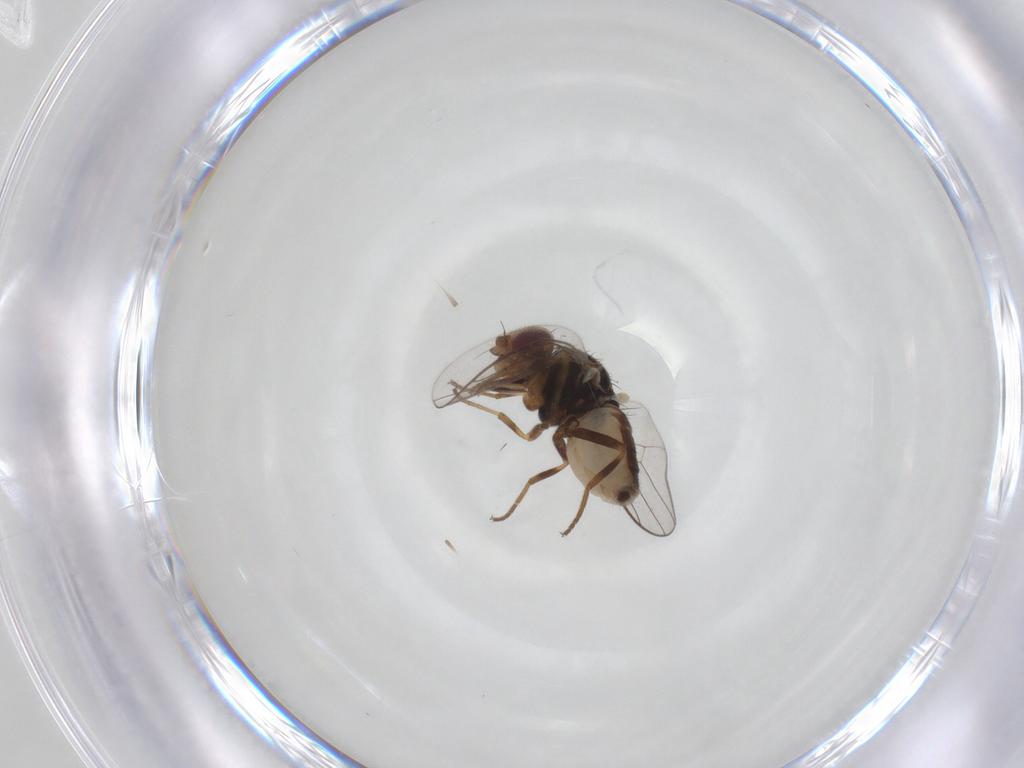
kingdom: Animalia
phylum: Arthropoda
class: Insecta
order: Diptera
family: Chloropidae
